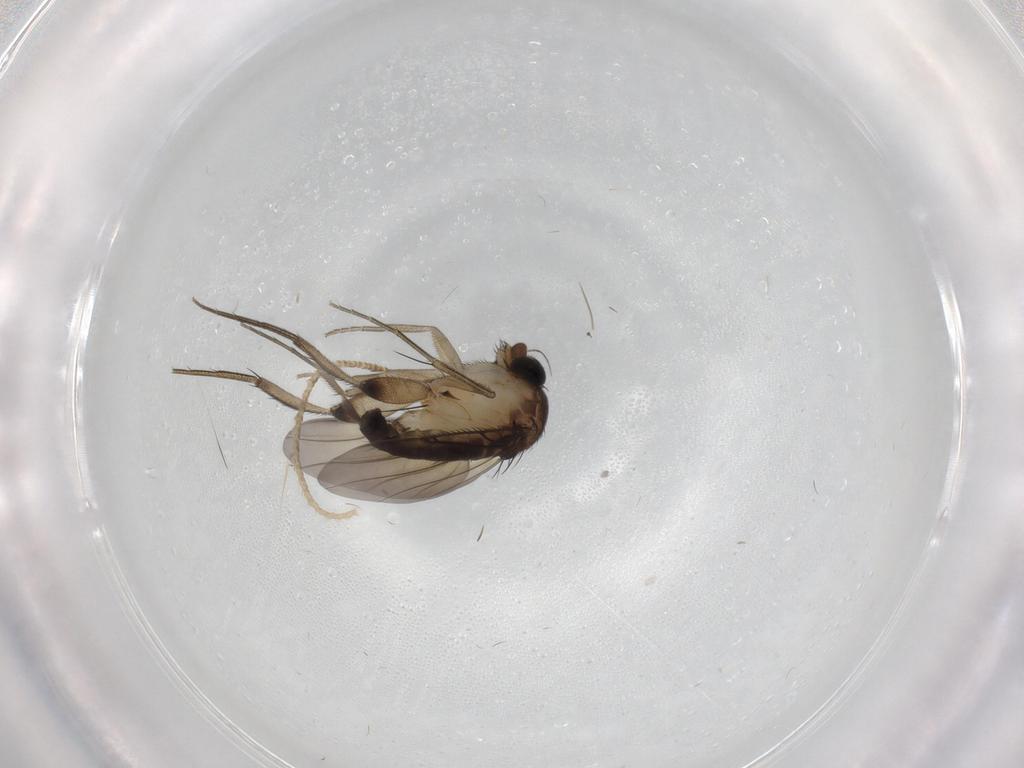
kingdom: Animalia
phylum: Arthropoda
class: Insecta
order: Diptera
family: Phoridae
